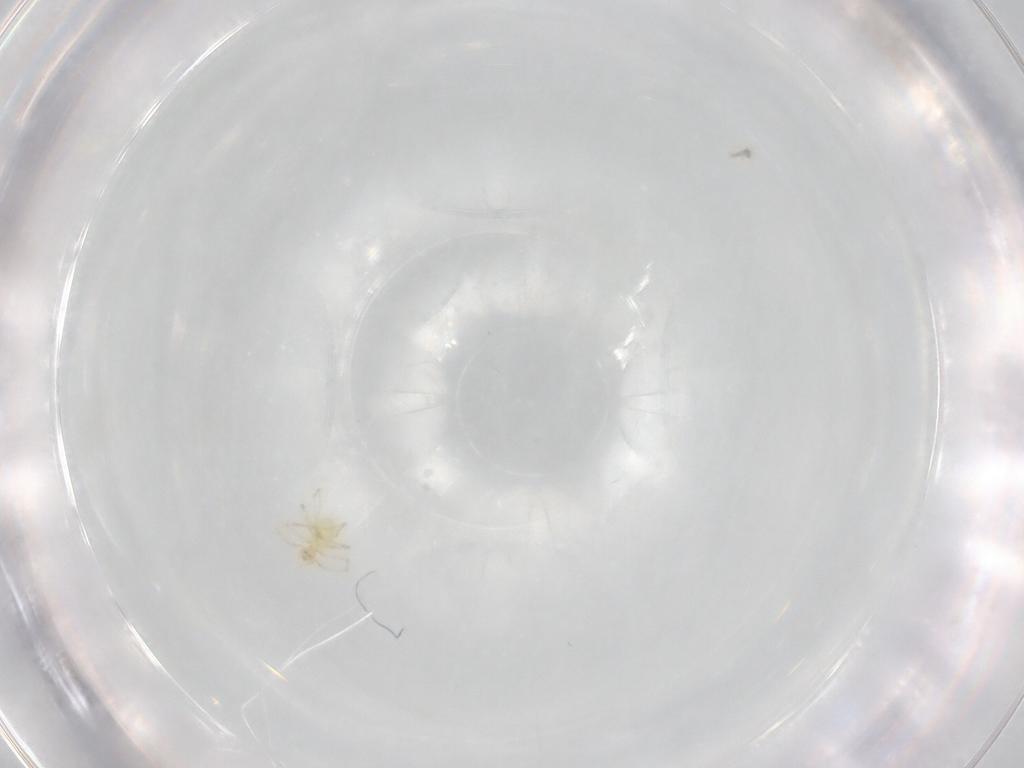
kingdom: Animalia
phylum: Arthropoda
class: Arachnida
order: Trombidiformes
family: Erythraeidae
